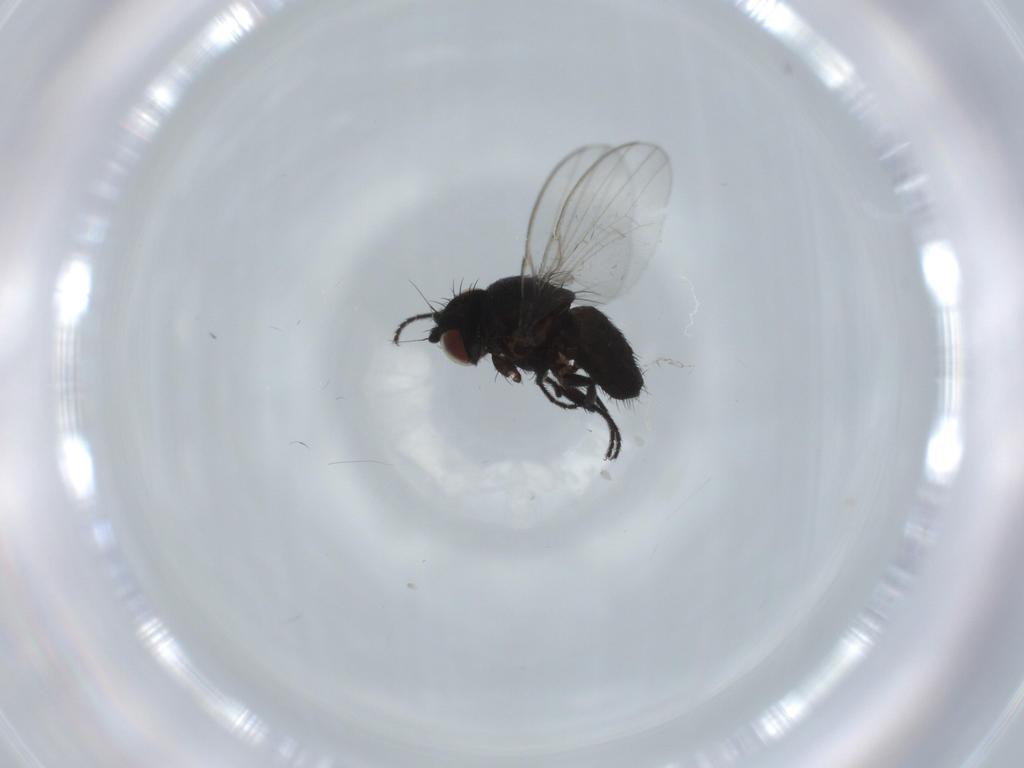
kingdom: Animalia
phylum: Arthropoda
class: Insecta
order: Diptera
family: Milichiidae
